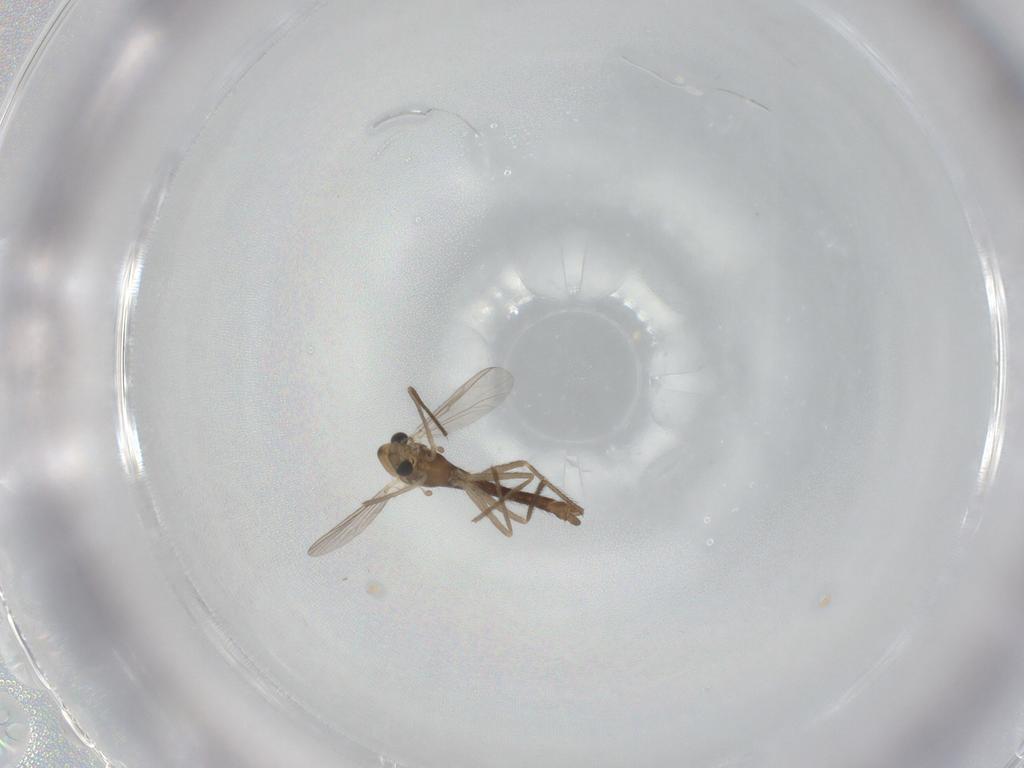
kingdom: Animalia
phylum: Arthropoda
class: Insecta
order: Diptera
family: Chironomidae
